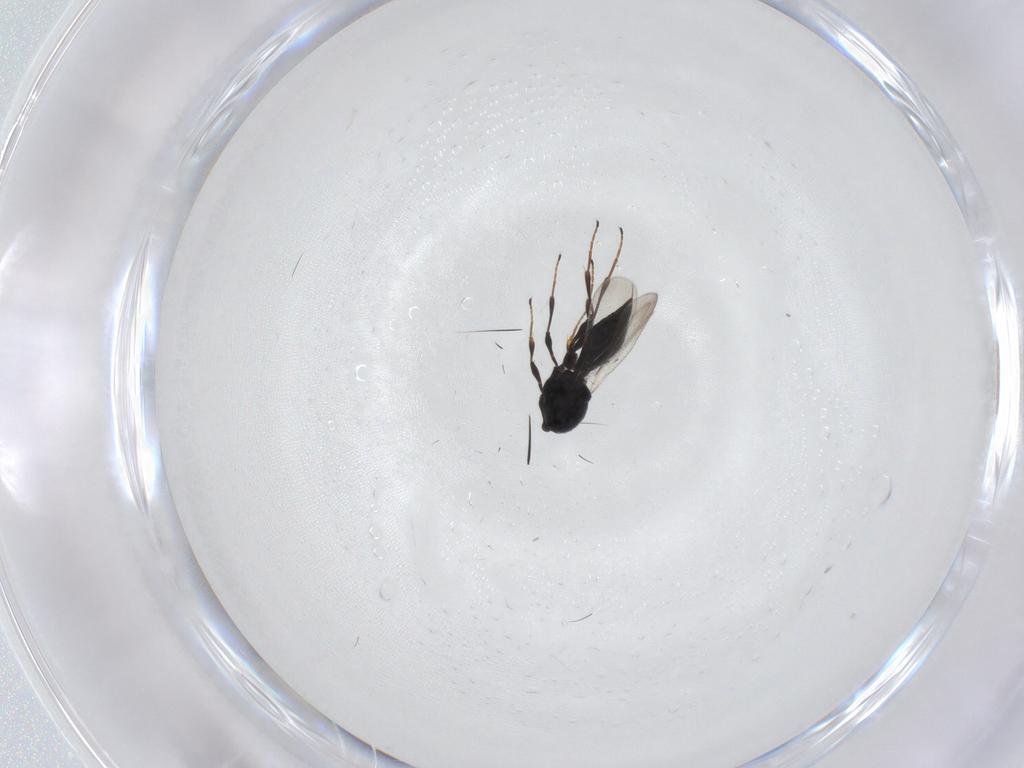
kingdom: Animalia
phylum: Arthropoda
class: Insecta
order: Hymenoptera
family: Platygastridae
